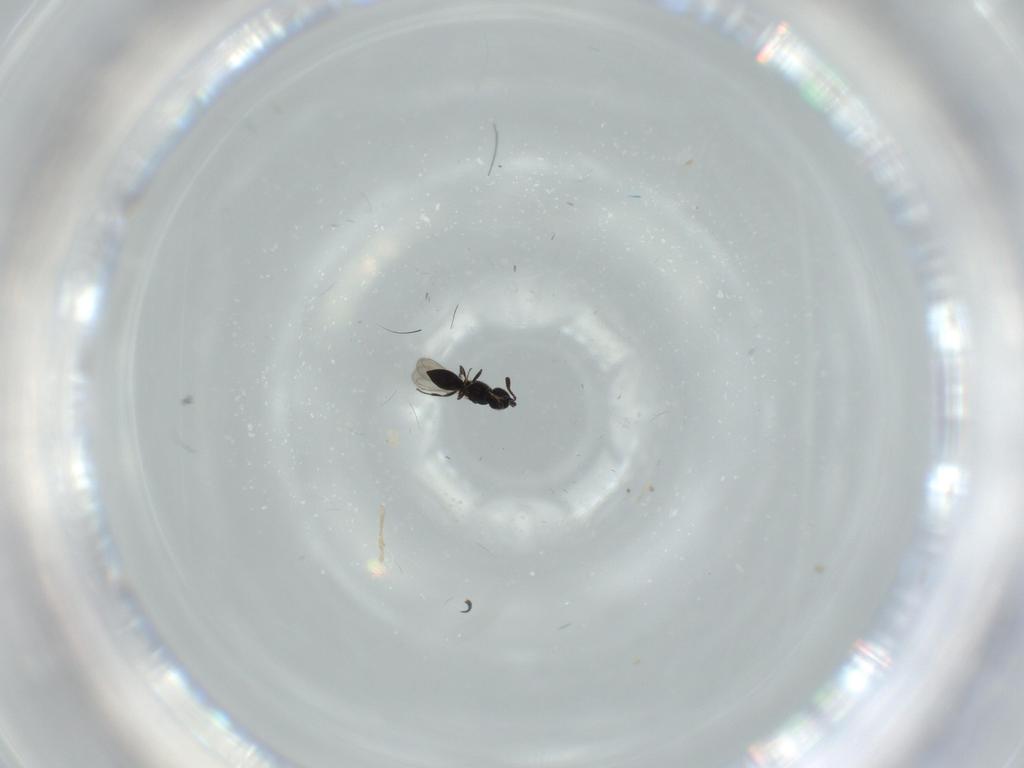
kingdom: Animalia
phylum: Arthropoda
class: Insecta
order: Hymenoptera
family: Scelionidae
